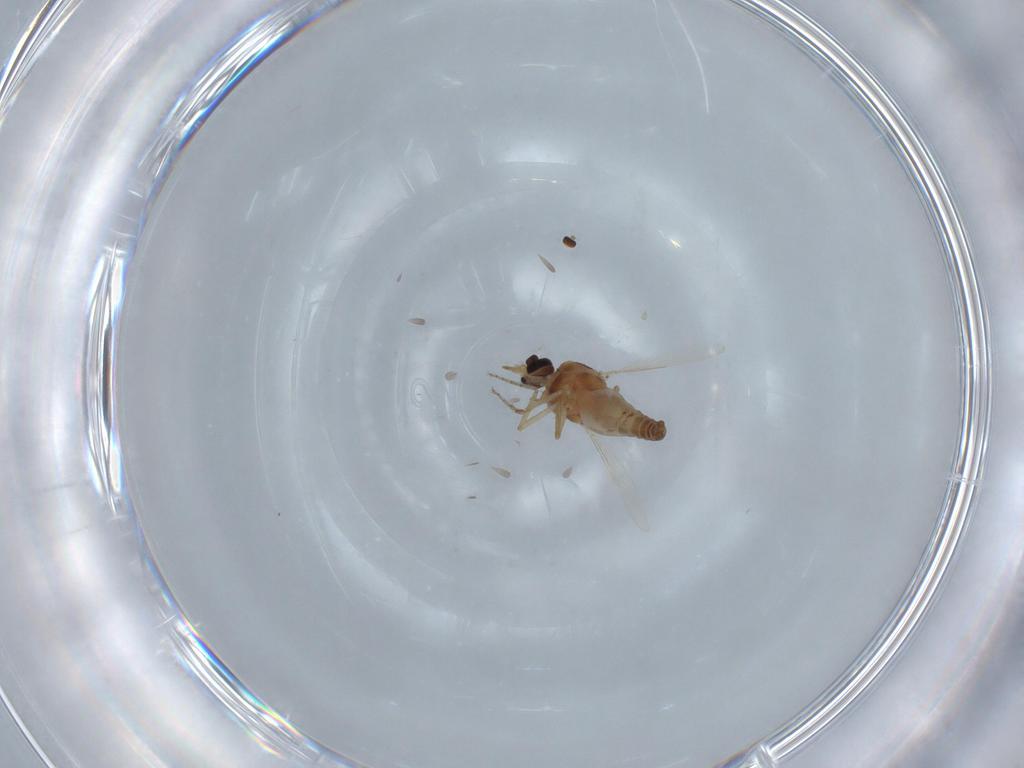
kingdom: Animalia
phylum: Arthropoda
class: Insecta
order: Diptera
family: Ceratopogonidae
